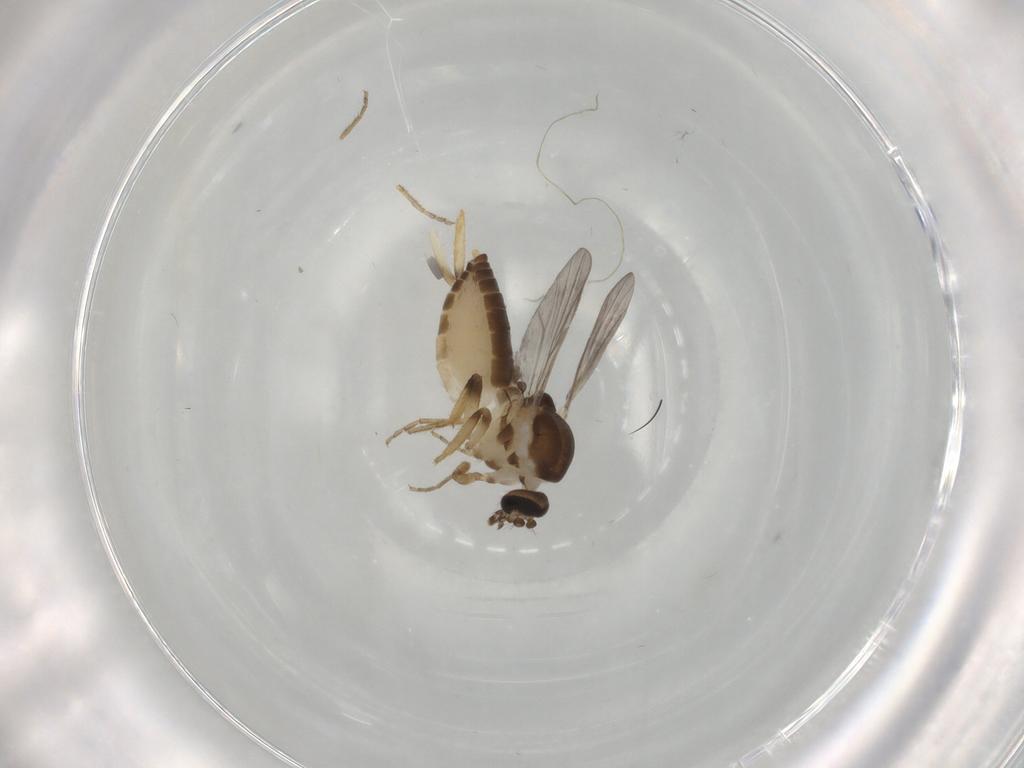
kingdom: Animalia
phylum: Arthropoda
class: Insecta
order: Diptera
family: Ceratopogonidae
